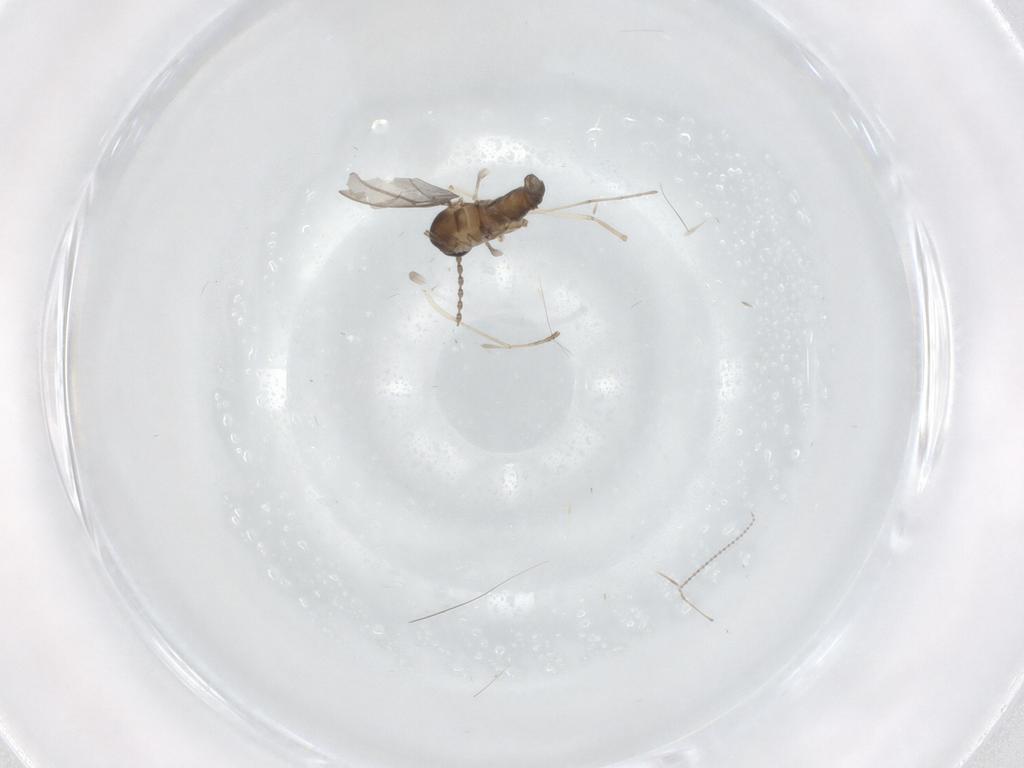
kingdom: Animalia
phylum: Arthropoda
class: Insecta
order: Diptera
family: Cecidomyiidae
